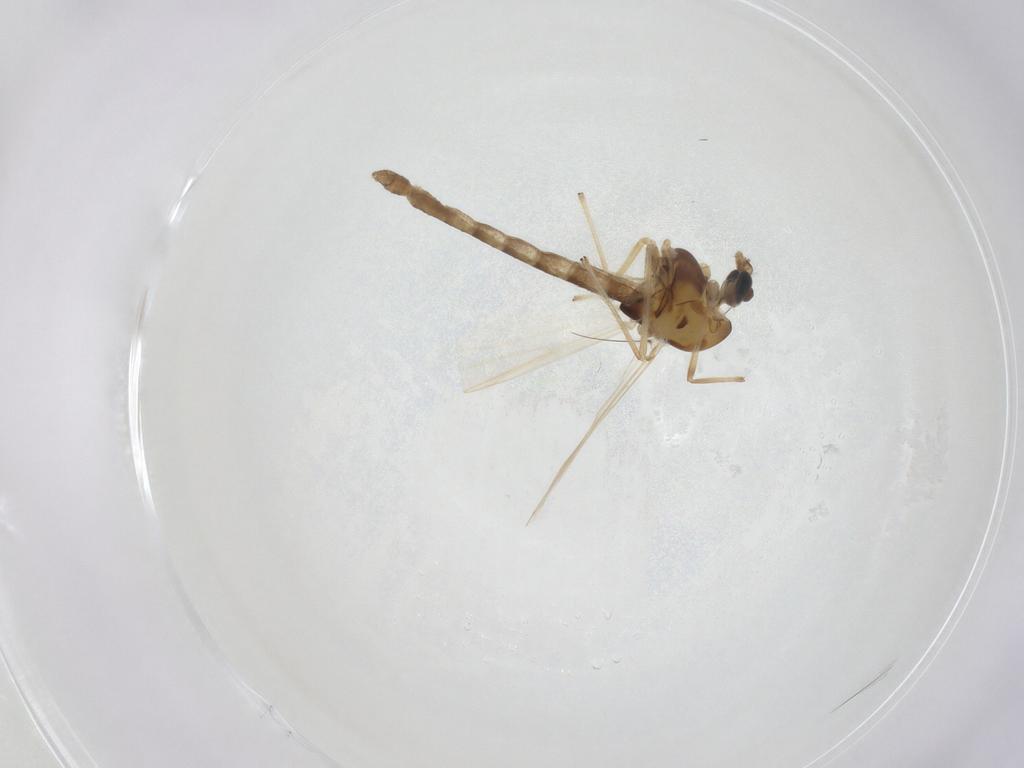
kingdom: Animalia
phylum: Arthropoda
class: Insecta
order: Diptera
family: Chironomidae
